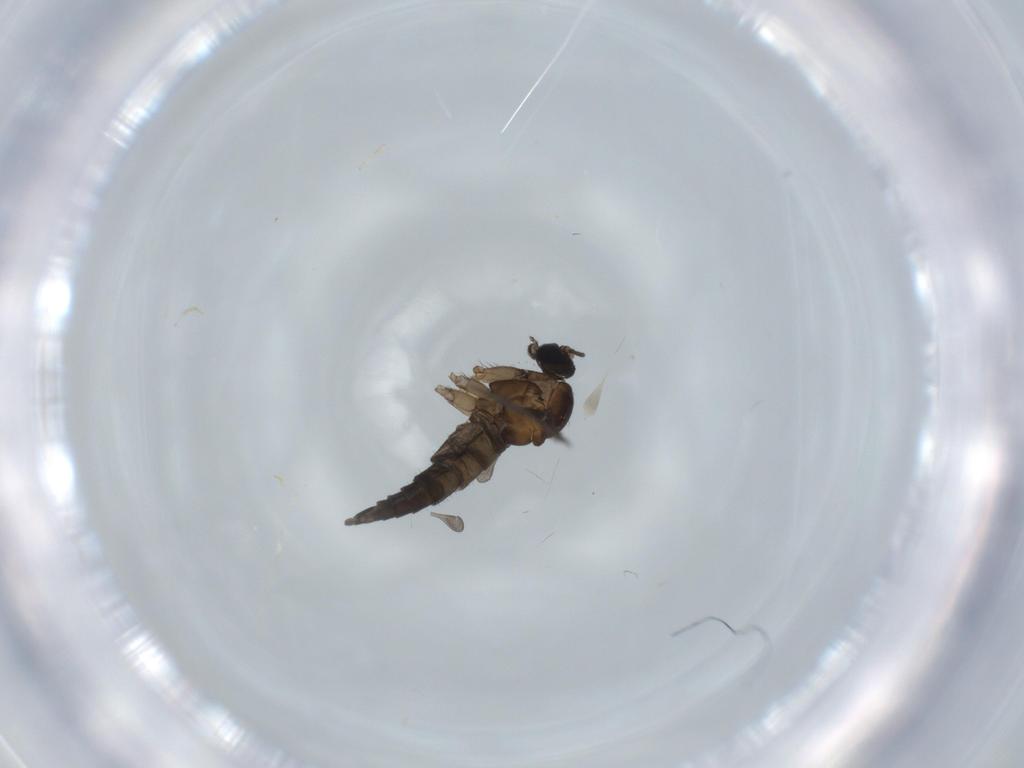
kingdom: Animalia
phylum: Arthropoda
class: Insecta
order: Diptera
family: Sciaridae
